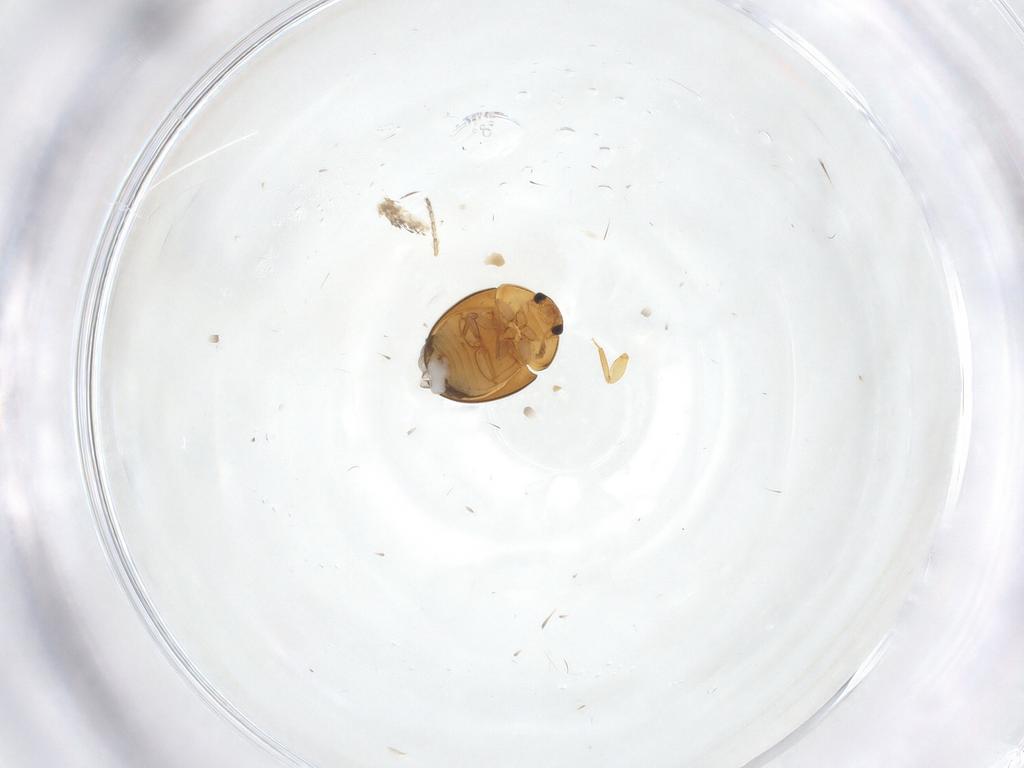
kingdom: Animalia
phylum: Arthropoda
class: Insecta
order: Coleoptera
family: Phalacridae
